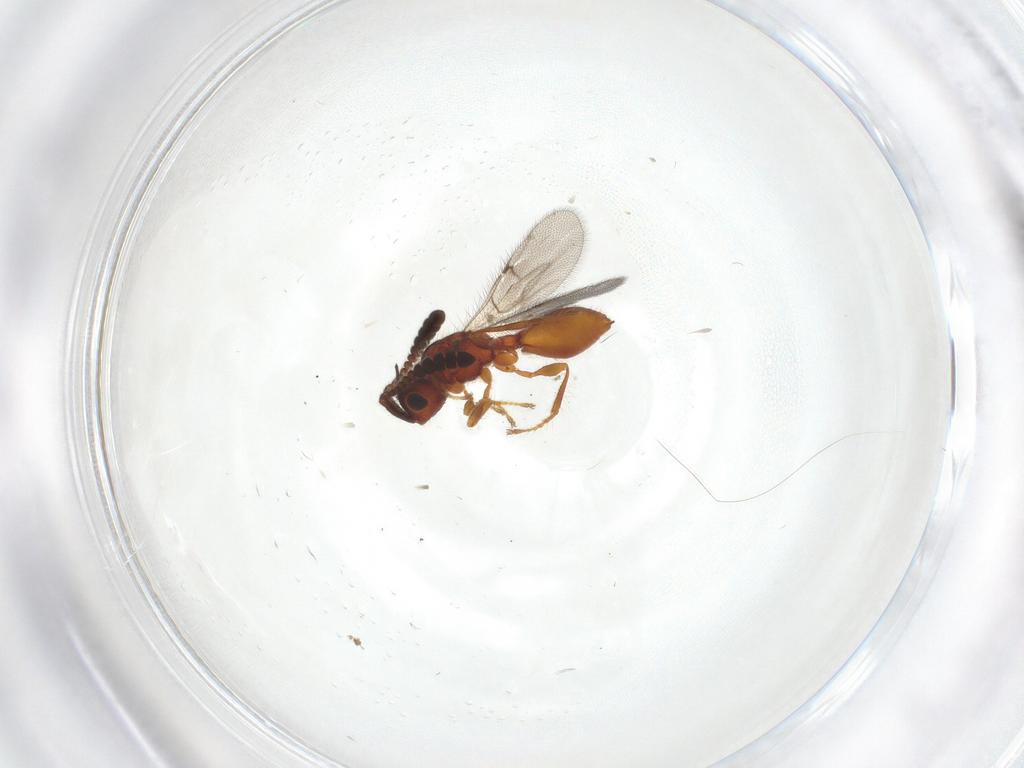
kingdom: Animalia
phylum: Arthropoda
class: Insecta
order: Hymenoptera
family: Diapriidae
